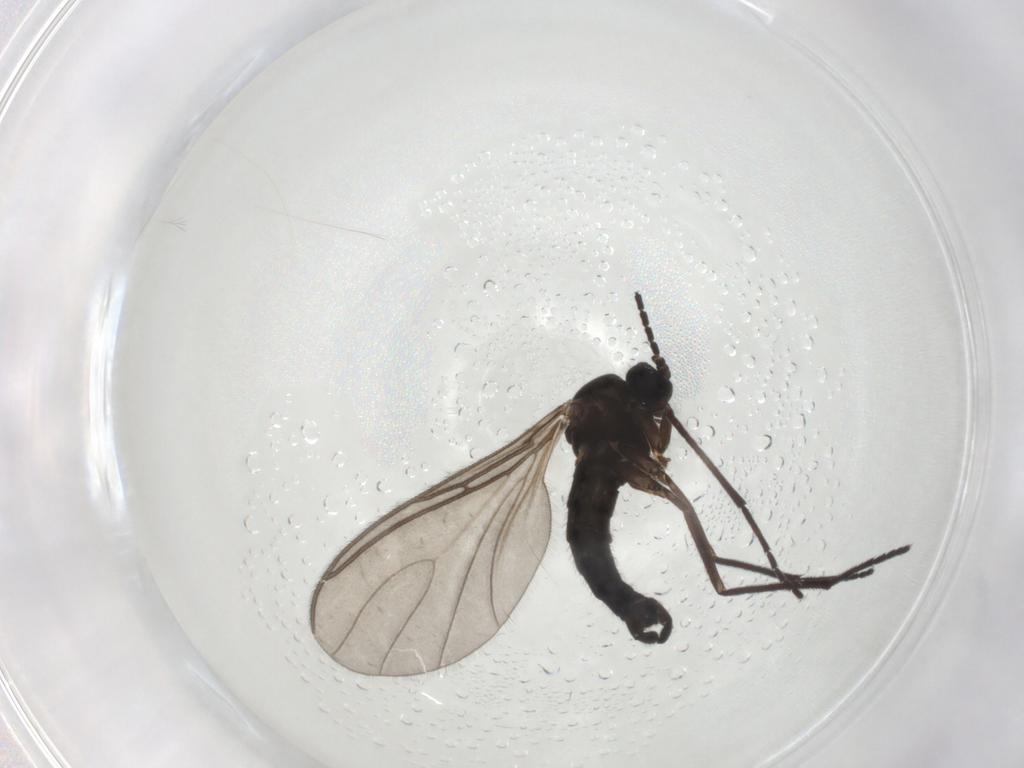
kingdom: Animalia
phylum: Arthropoda
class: Insecta
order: Diptera
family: Sciaridae
